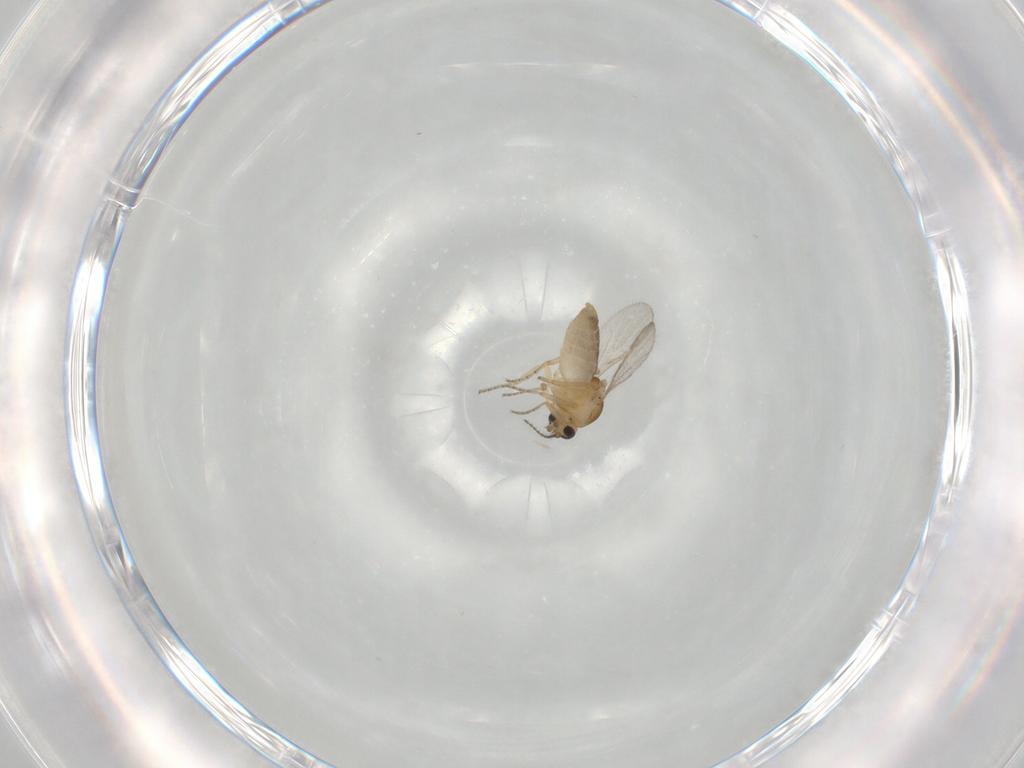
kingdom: Animalia
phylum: Arthropoda
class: Insecta
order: Diptera
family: Ceratopogonidae
